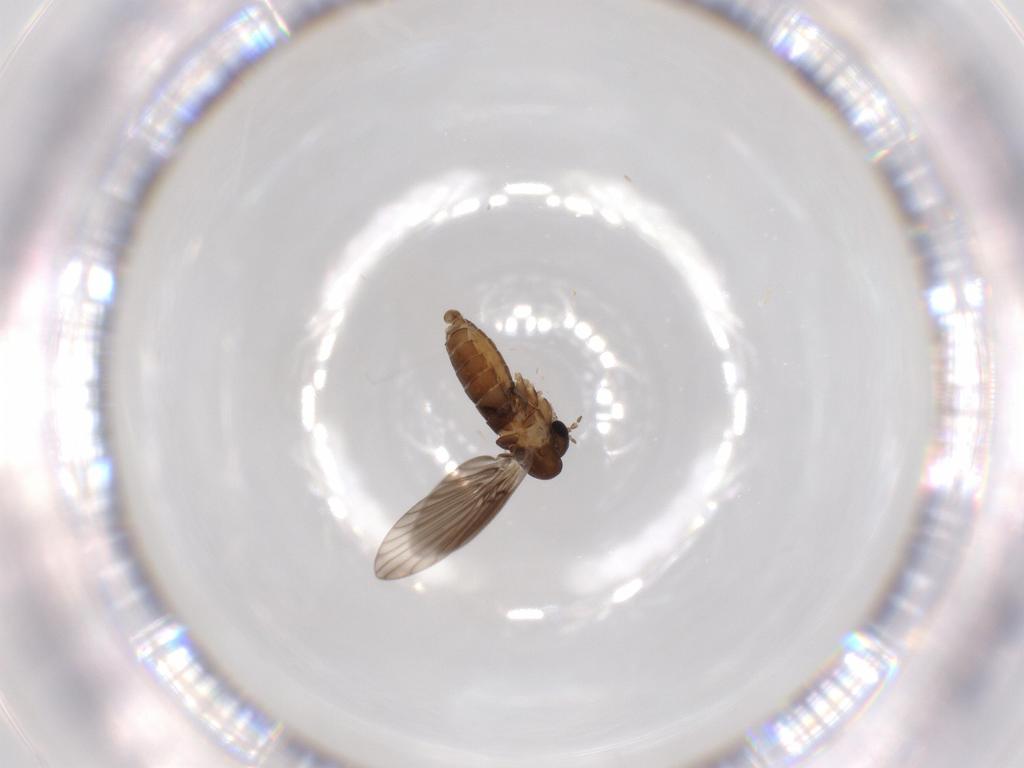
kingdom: Animalia
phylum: Arthropoda
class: Insecta
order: Diptera
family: Psychodidae
